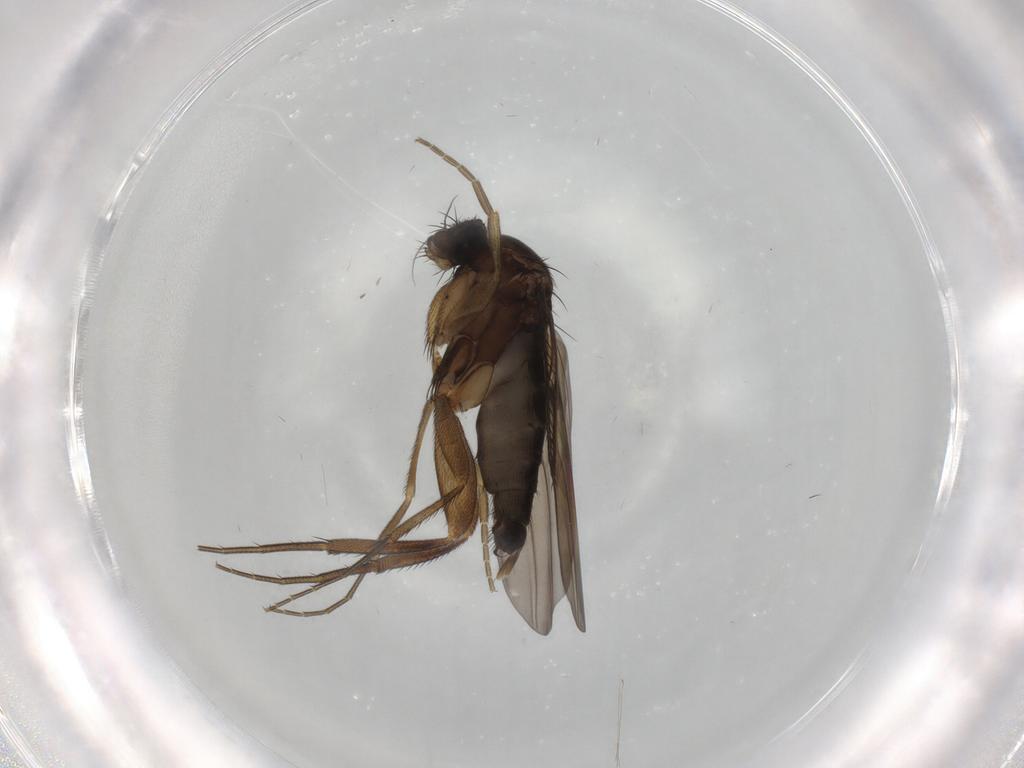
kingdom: Animalia
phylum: Arthropoda
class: Insecta
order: Diptera
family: Phoridae
